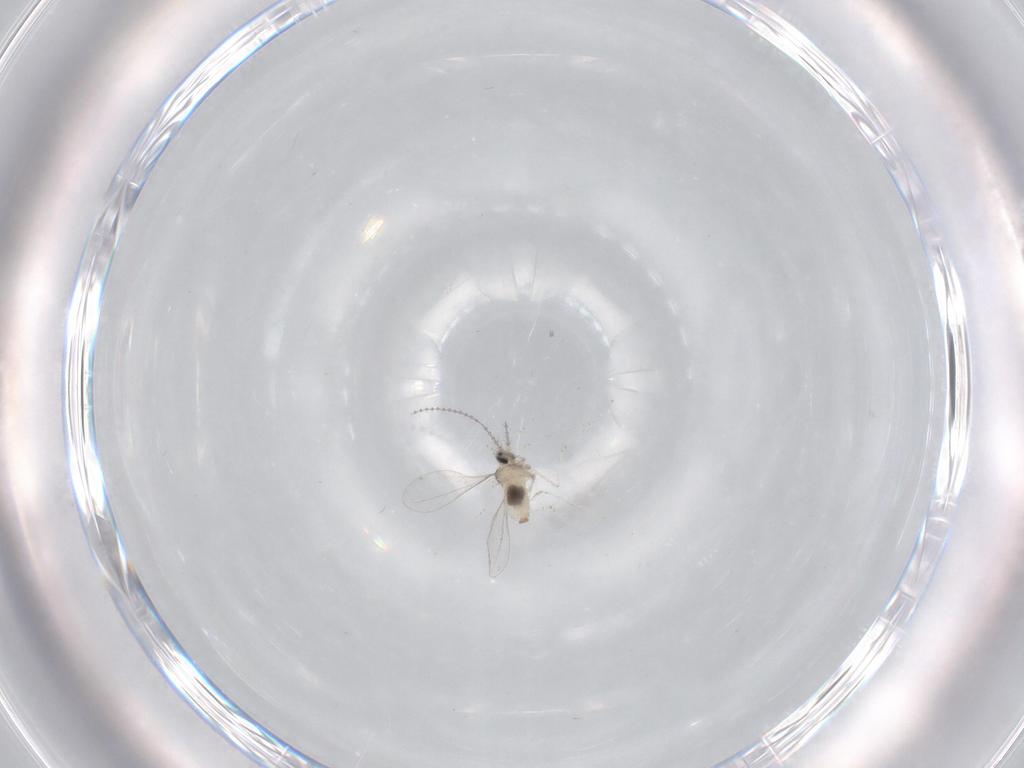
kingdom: Animalia
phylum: Arthropoda
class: Insecta
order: Diptera
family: Cecidomyiidae
